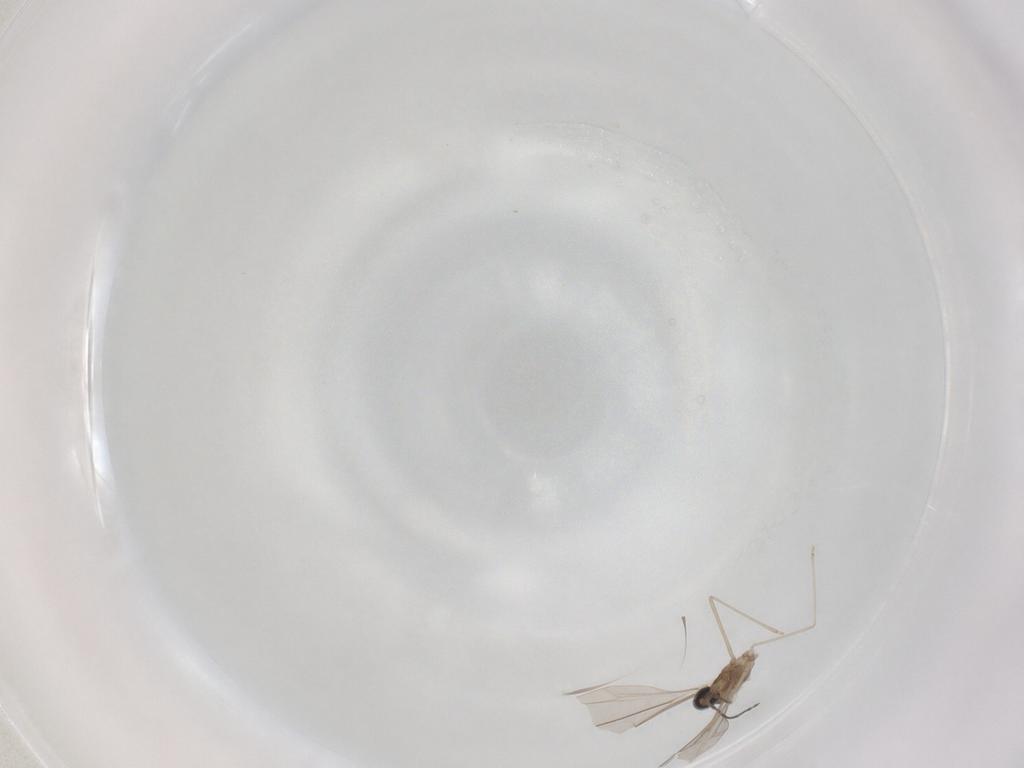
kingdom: Animalia
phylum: Arthropoda
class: Insecta
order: Diptera
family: Cecidomyiidae
